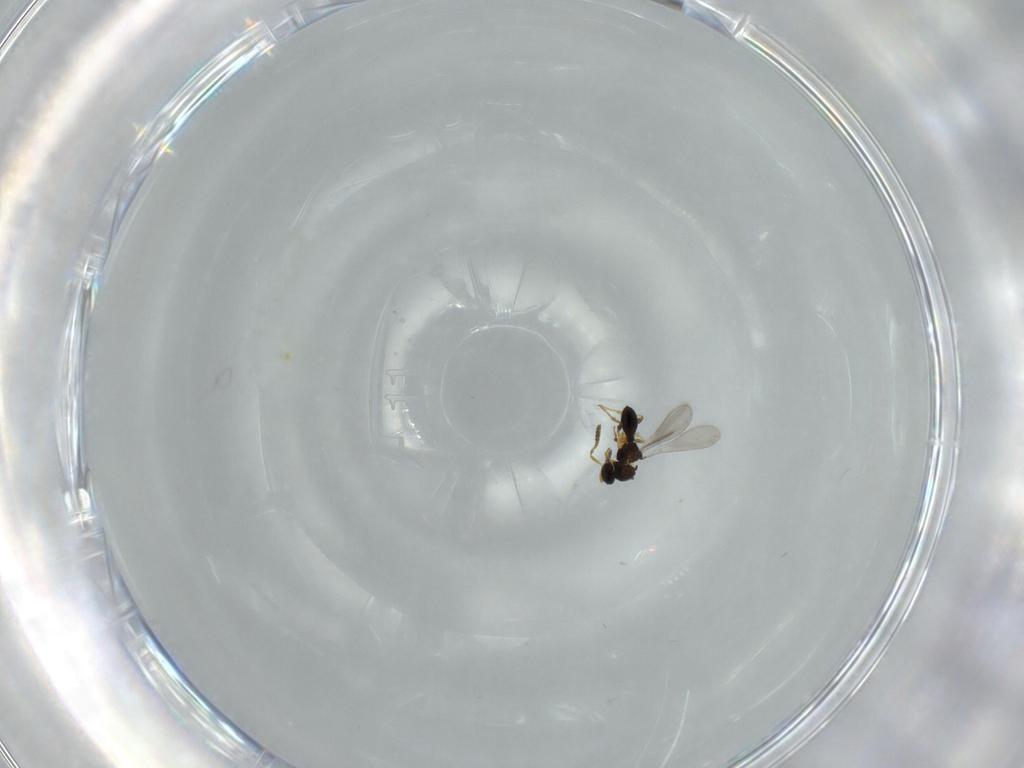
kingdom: Animalia
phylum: Arthropoda
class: Insecta
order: Hymenoptera
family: Platygastridae
